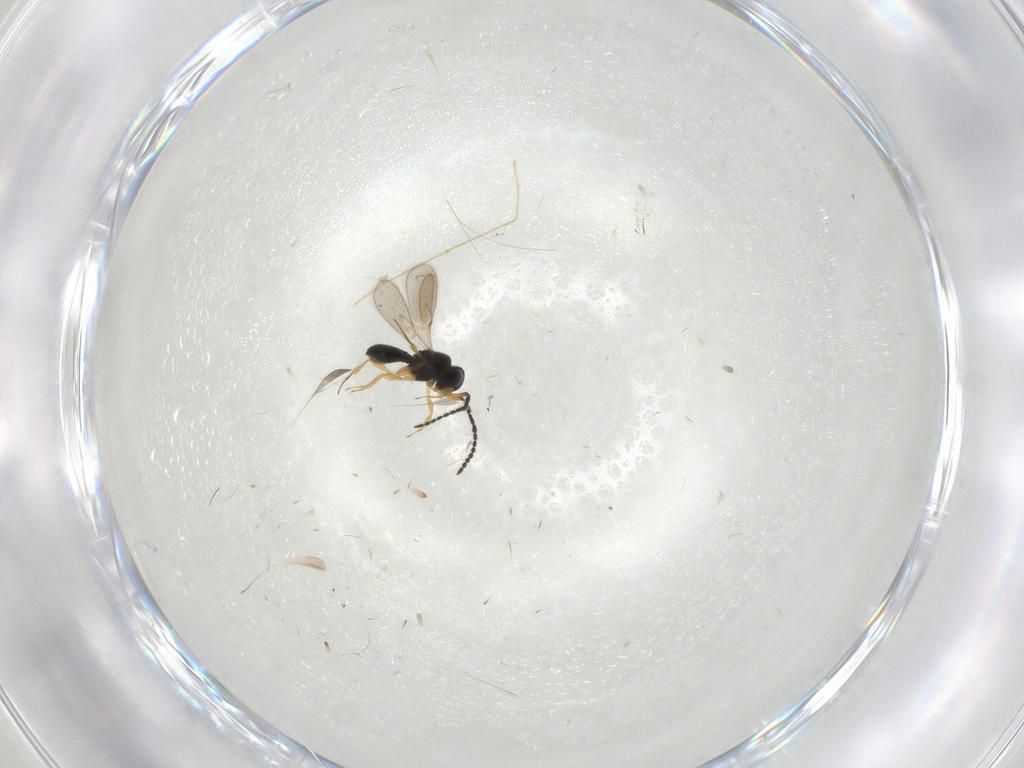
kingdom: Animalia
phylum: Arthropoda
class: Insecta
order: Hymenoptera
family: Scelionidae
